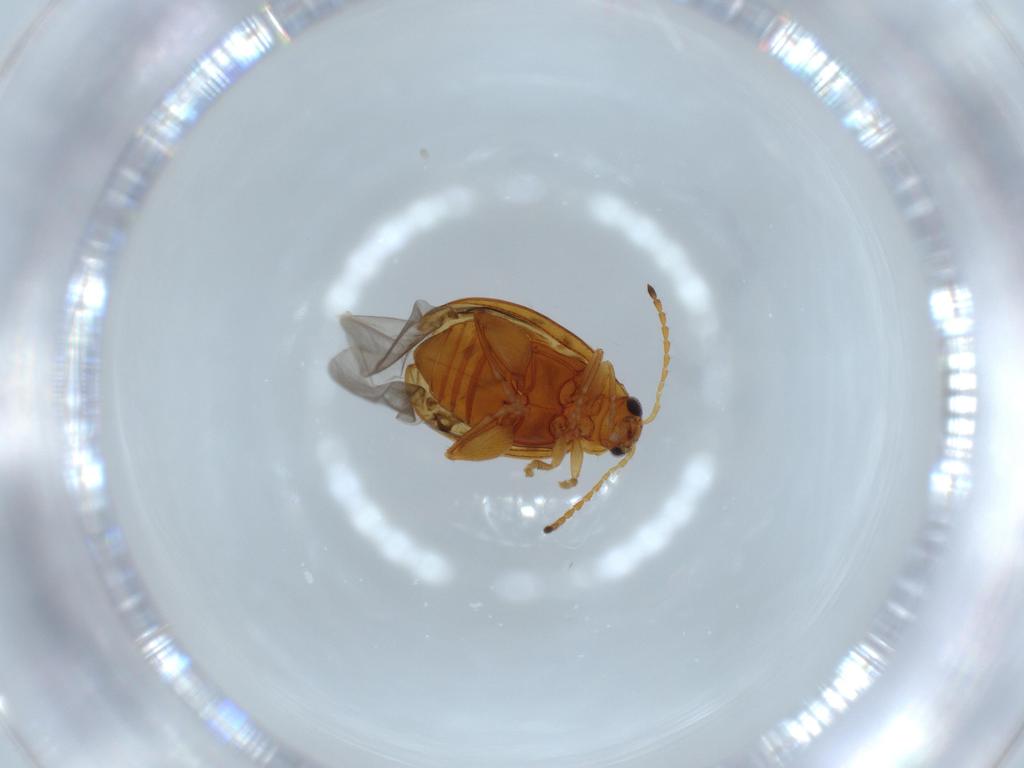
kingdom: Animalia
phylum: Arthropoda
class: Insecta
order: Coleoptera
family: Chrysomelidae
